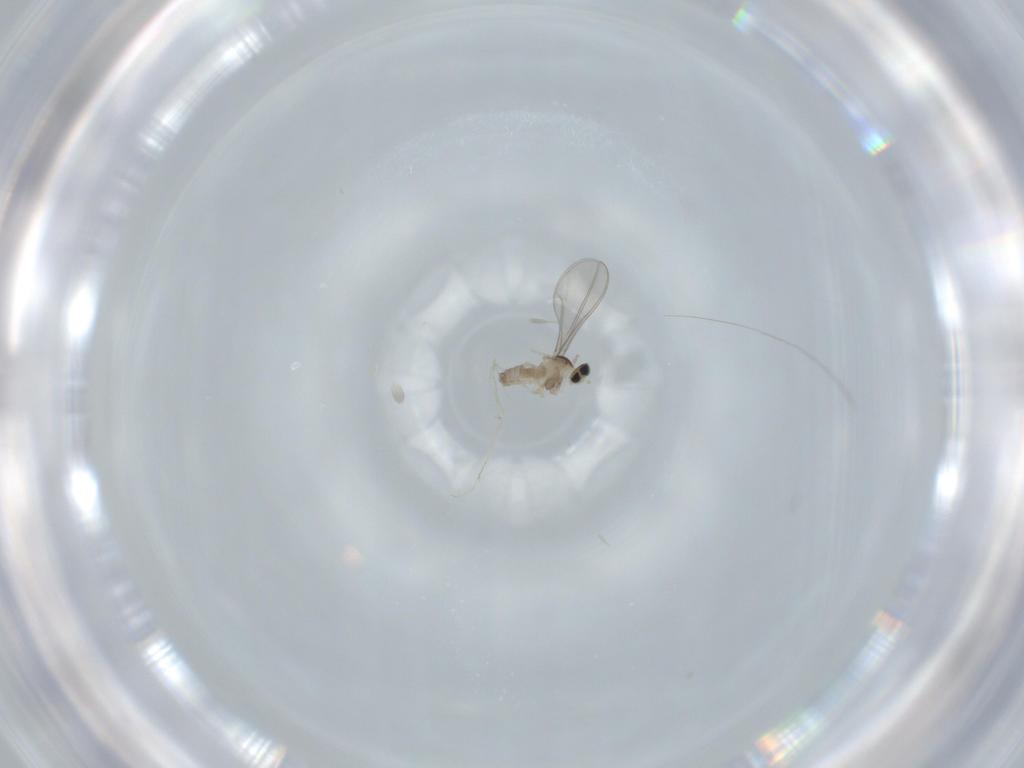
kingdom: Animalia
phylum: Arthropoda
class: Insecta
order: Diptera
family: Cecidomyiidae
